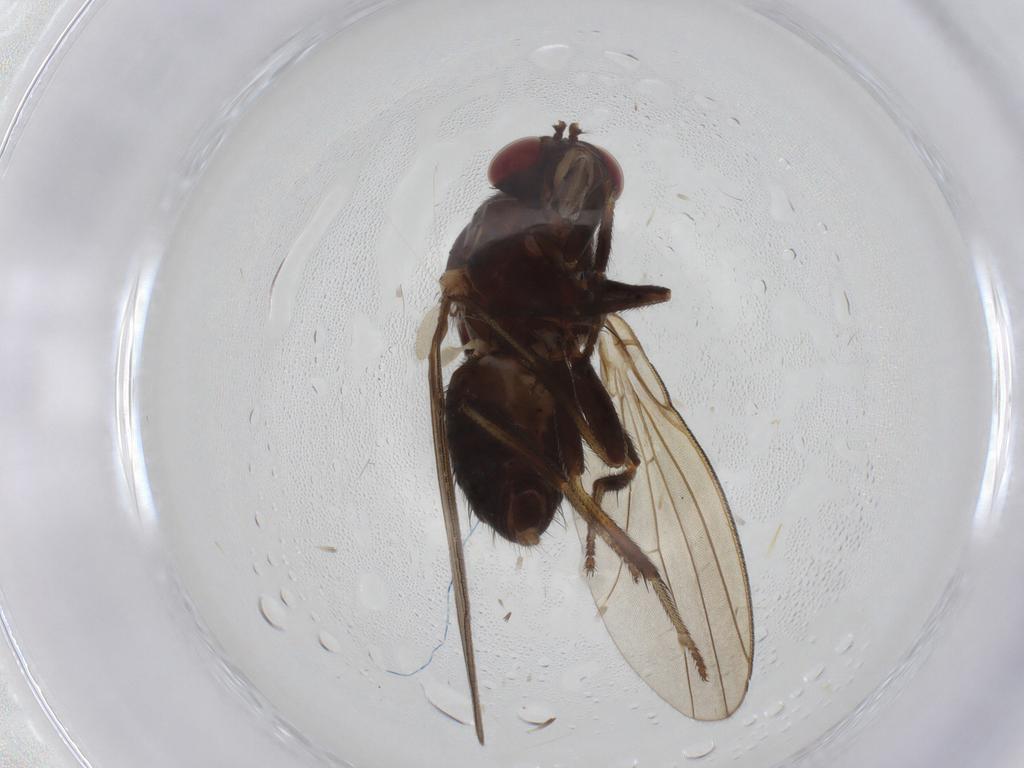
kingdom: Animalia
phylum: Arthropoda
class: Insecta
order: Diptera
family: Lauxaniidae
